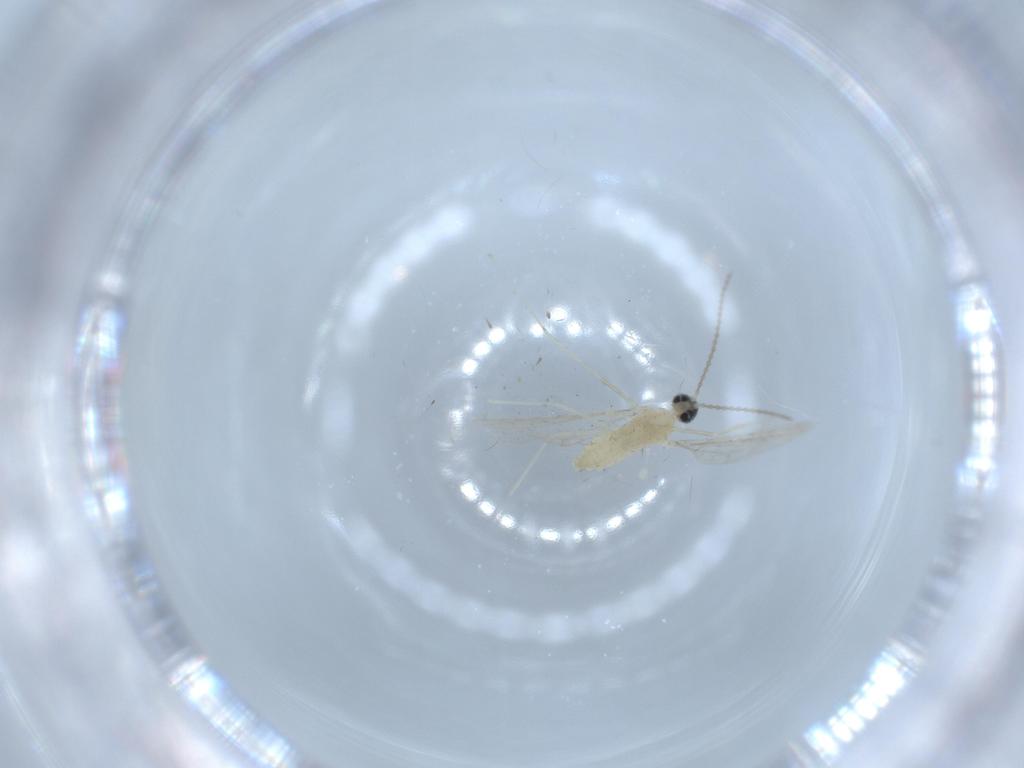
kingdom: Animalia
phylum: Arthropoda
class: Insecta
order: Diptera
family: Cecidomyiidae
